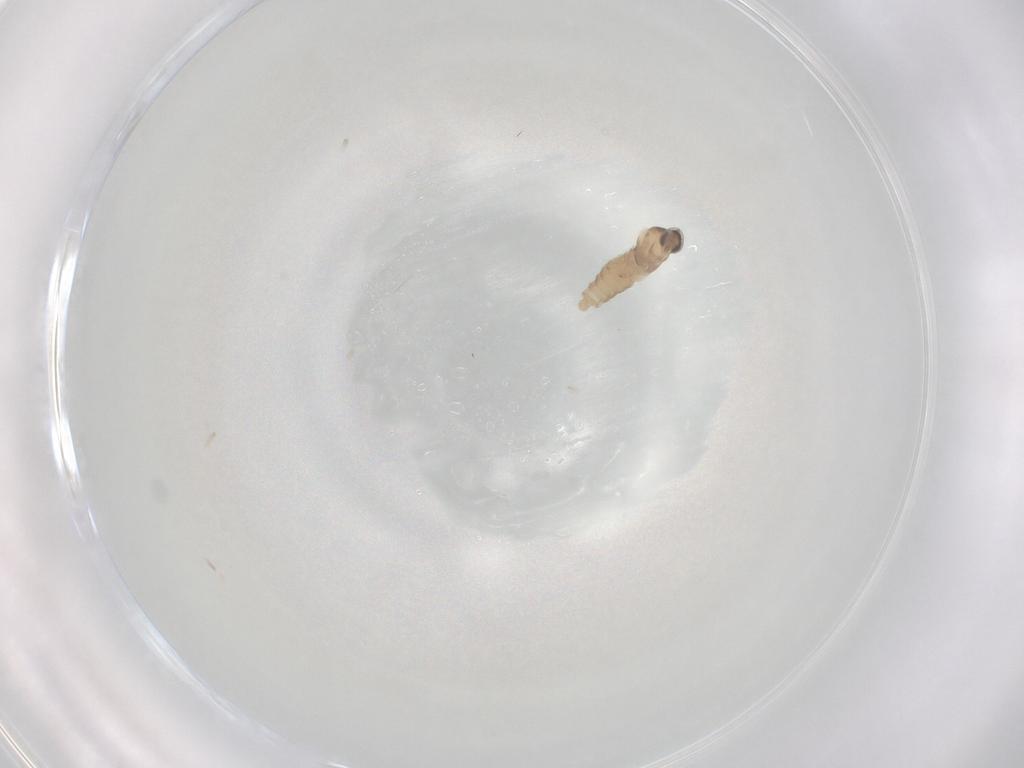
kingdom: Animalia
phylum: Arthropoda
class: Insecta
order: Diptera
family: Cecidomyiidae
